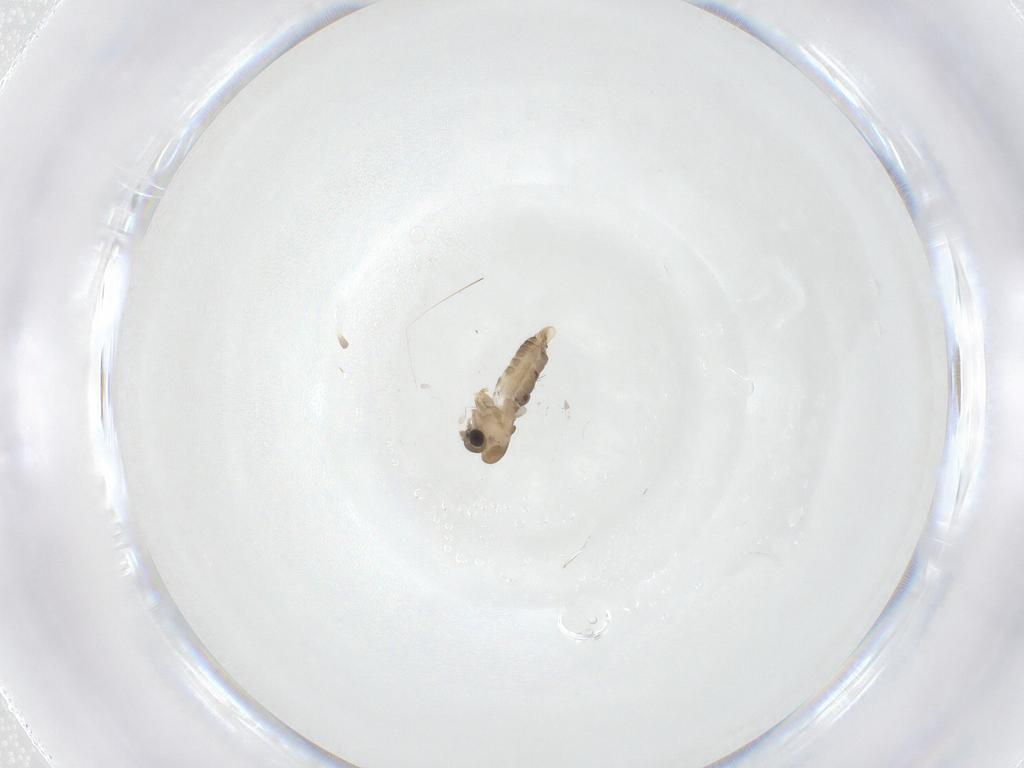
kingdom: Animalia
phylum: Arthropoda
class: Insecta
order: Diptera
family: Psychodidae
